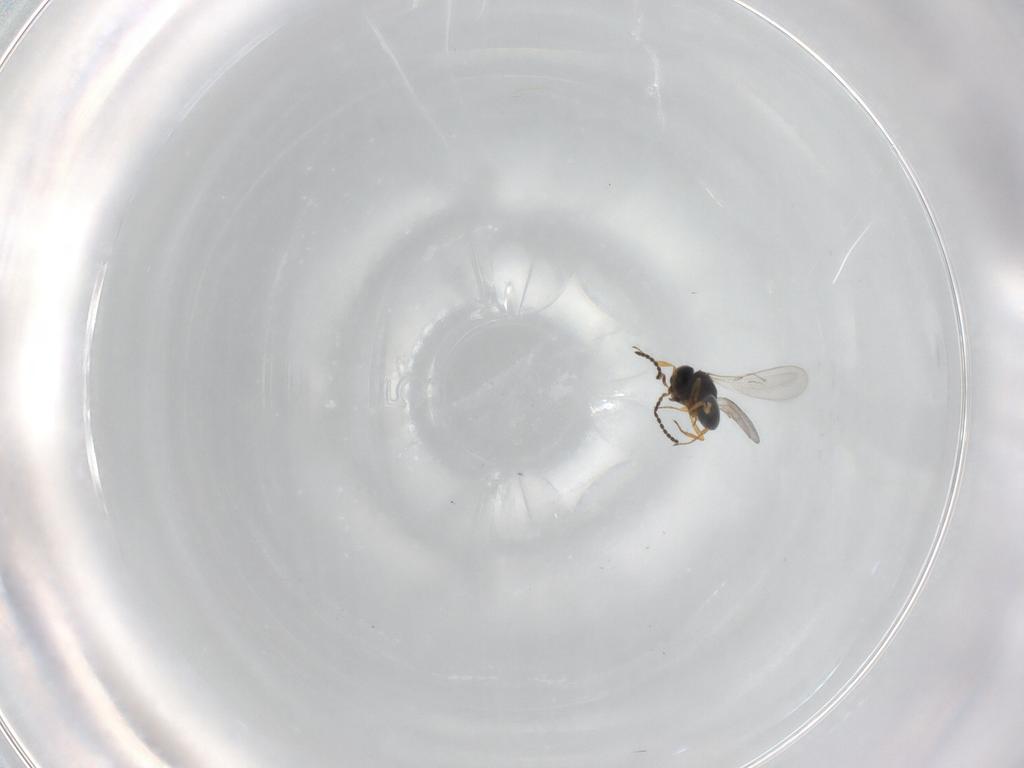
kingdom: Animalia
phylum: Arthropoda
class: Insecta
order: Hymenoptera
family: Scelionidae
